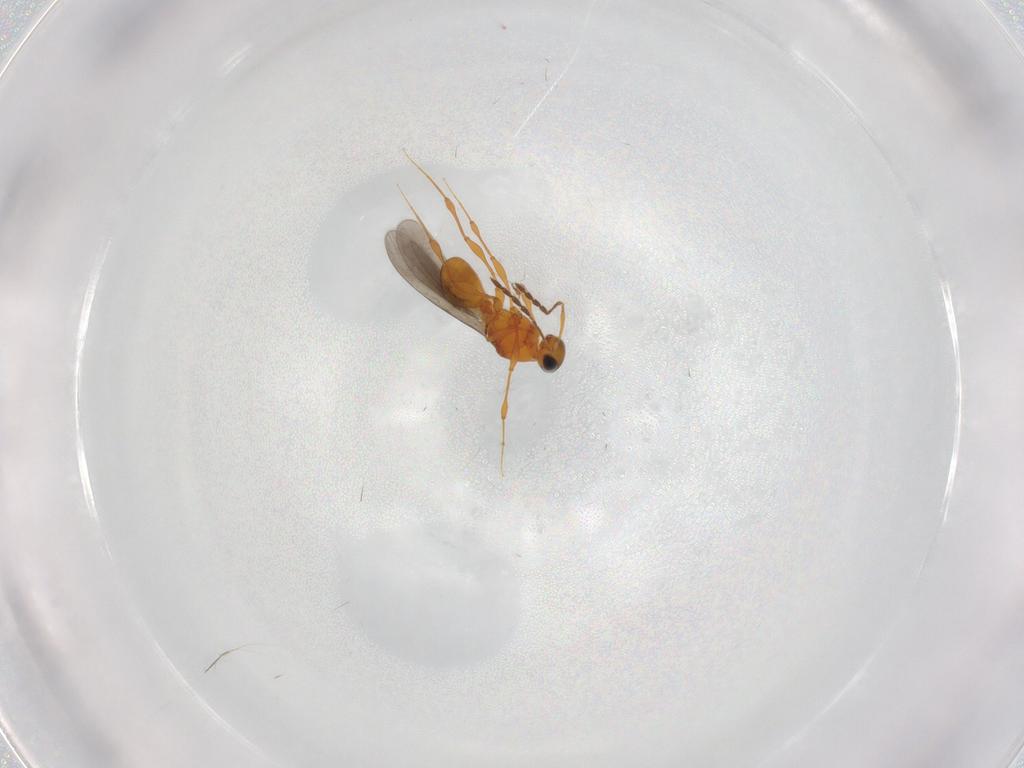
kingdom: Animalia
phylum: Arthropoda
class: Insecta
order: Hymenoptera
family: Platygastridae
